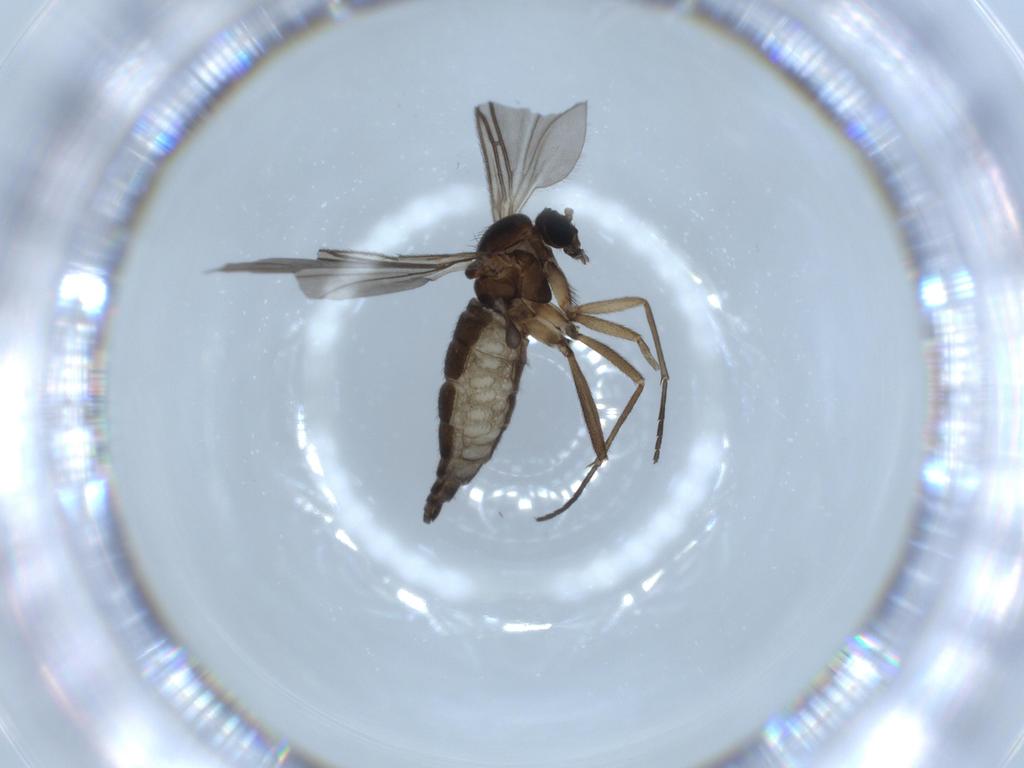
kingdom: Animalia
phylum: Arthropoda
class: Insecta
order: Diptera
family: Sciaridae
